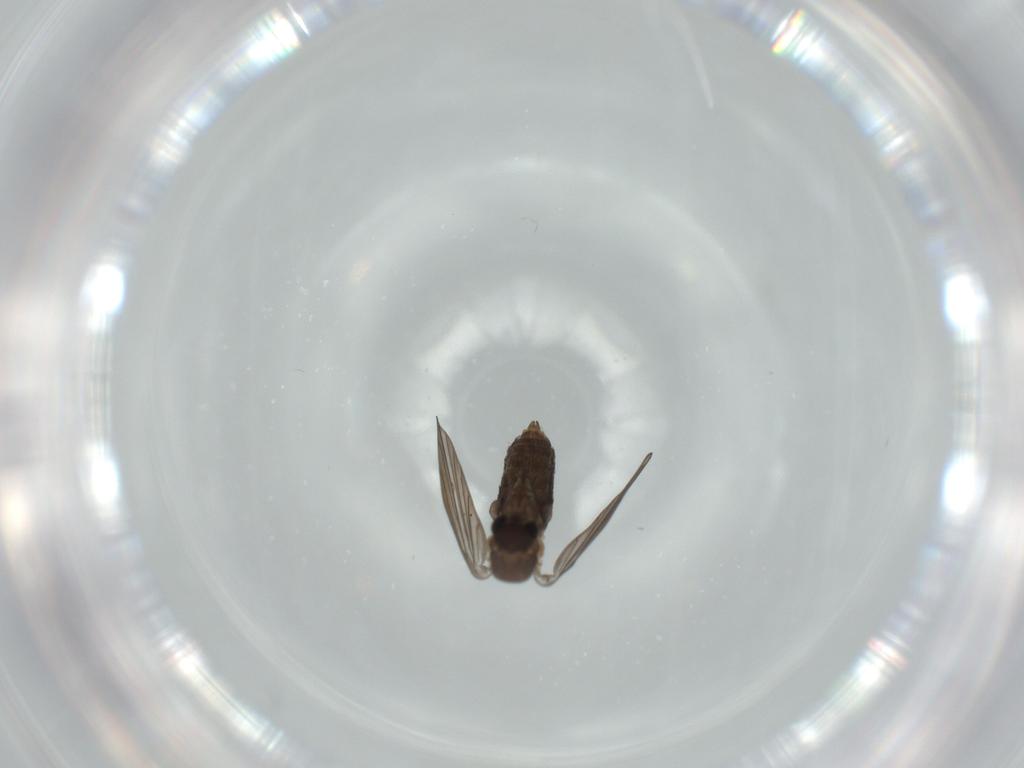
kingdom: Animalia
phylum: Arthropoda
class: Insecta
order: Diptera
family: Psychodidae
